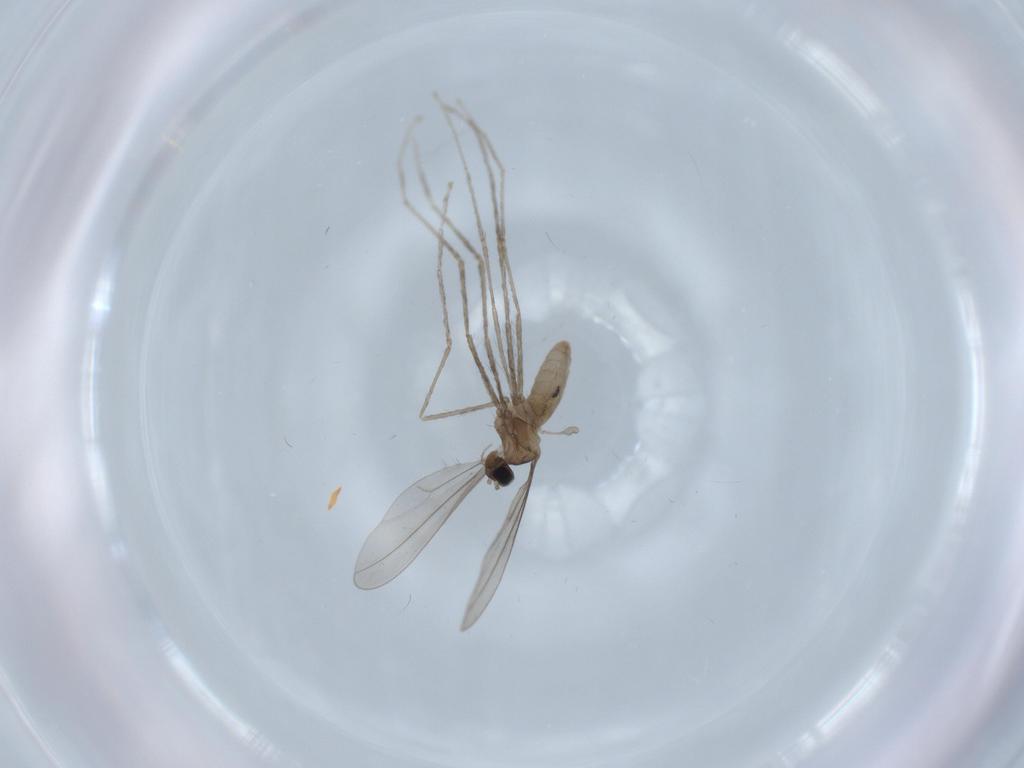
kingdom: Animalia
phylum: Arthropoda
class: Insecta
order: Diptera
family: Cecidomyiidae
